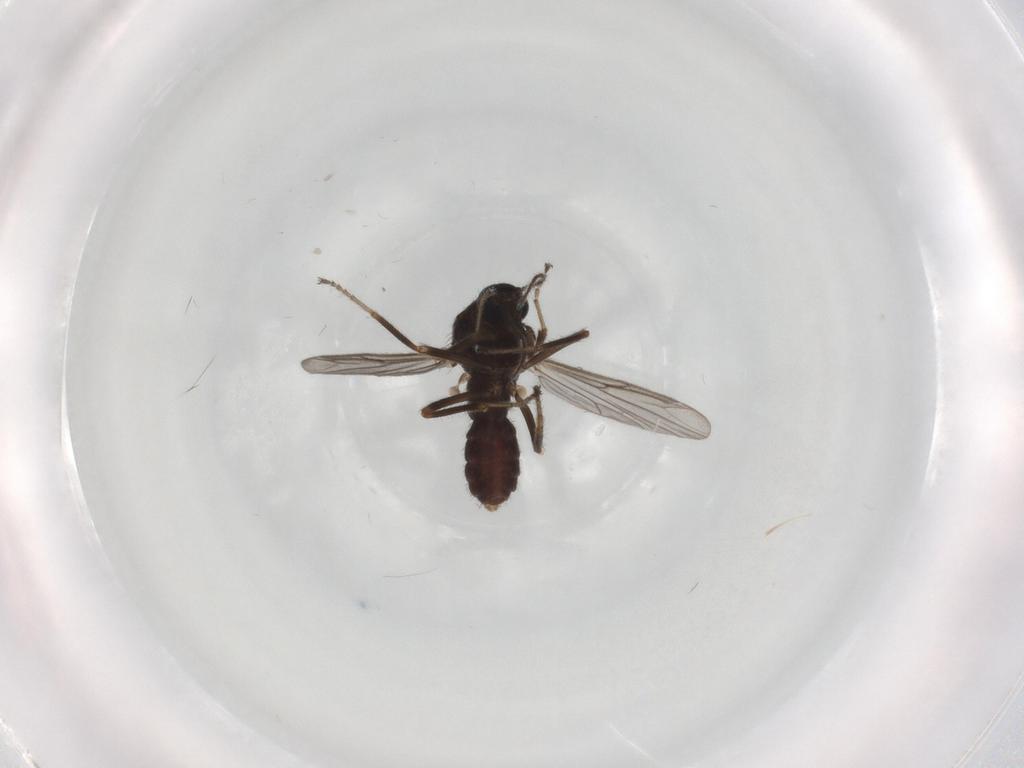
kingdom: Animalia
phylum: Arthropoda
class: Insecta
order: Diptera
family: Ceratopogonidae
